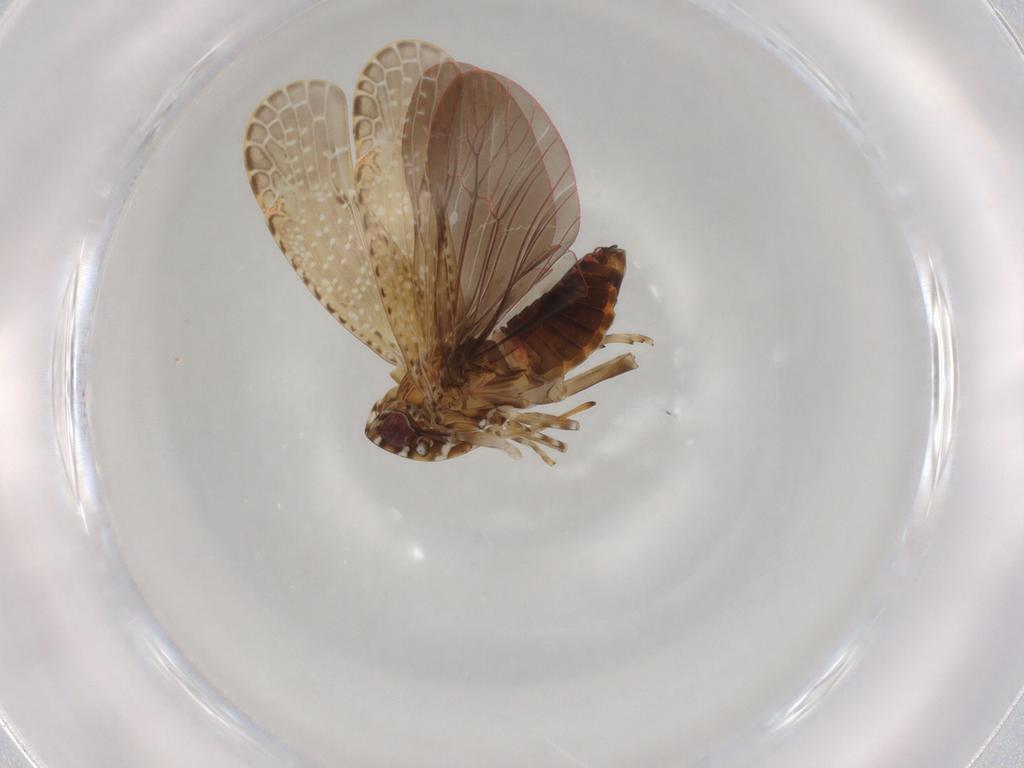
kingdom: Animalia
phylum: Arthropoda
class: Insecta
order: Hemiptera
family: Achilidae
